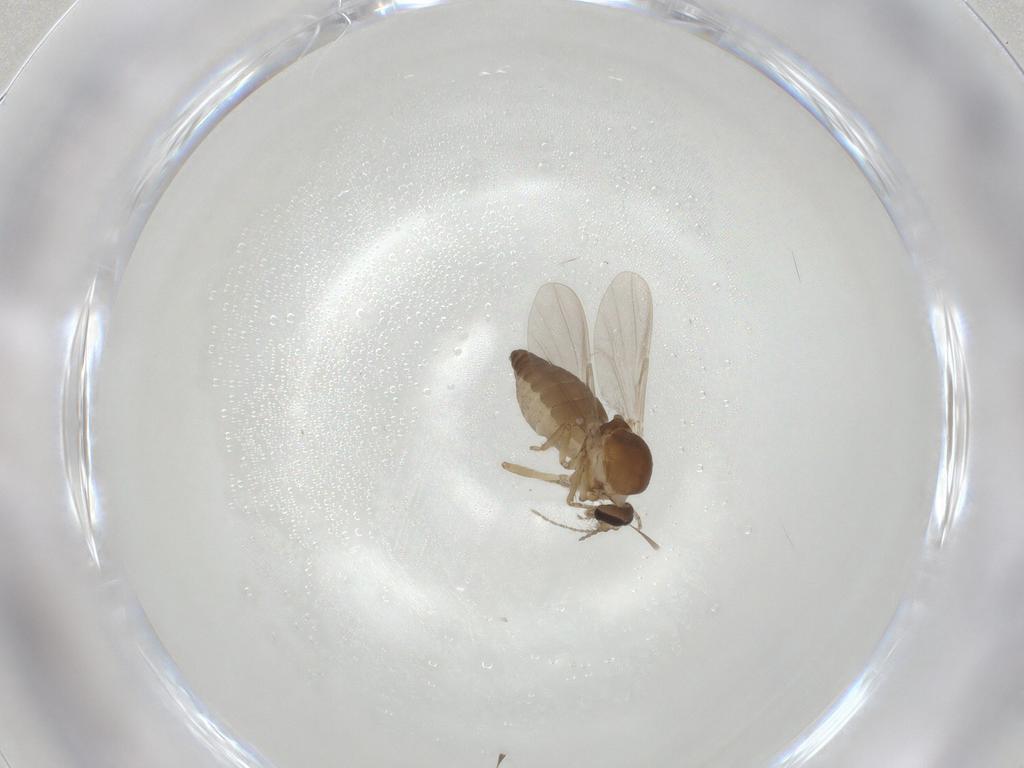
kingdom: Animalia
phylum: Arthropoda
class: Insecta
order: Diptera
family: Ceratopogonidae
